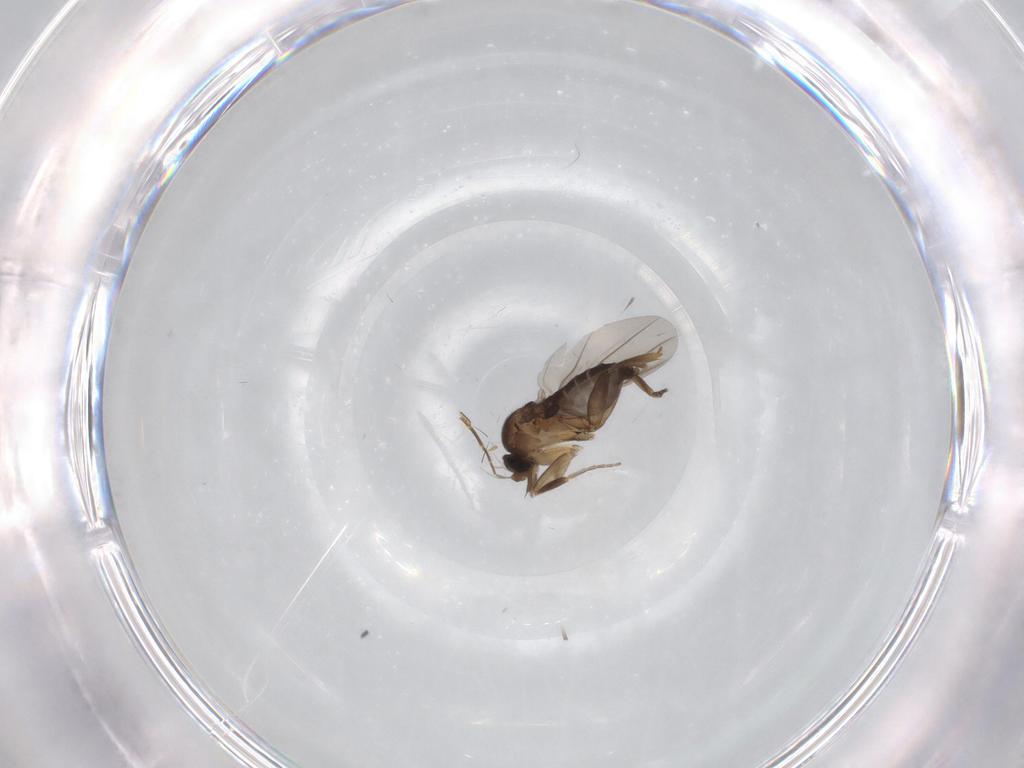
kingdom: Animalia
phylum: Arthropoda
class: Insecta
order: Diptera
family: Phoridae
